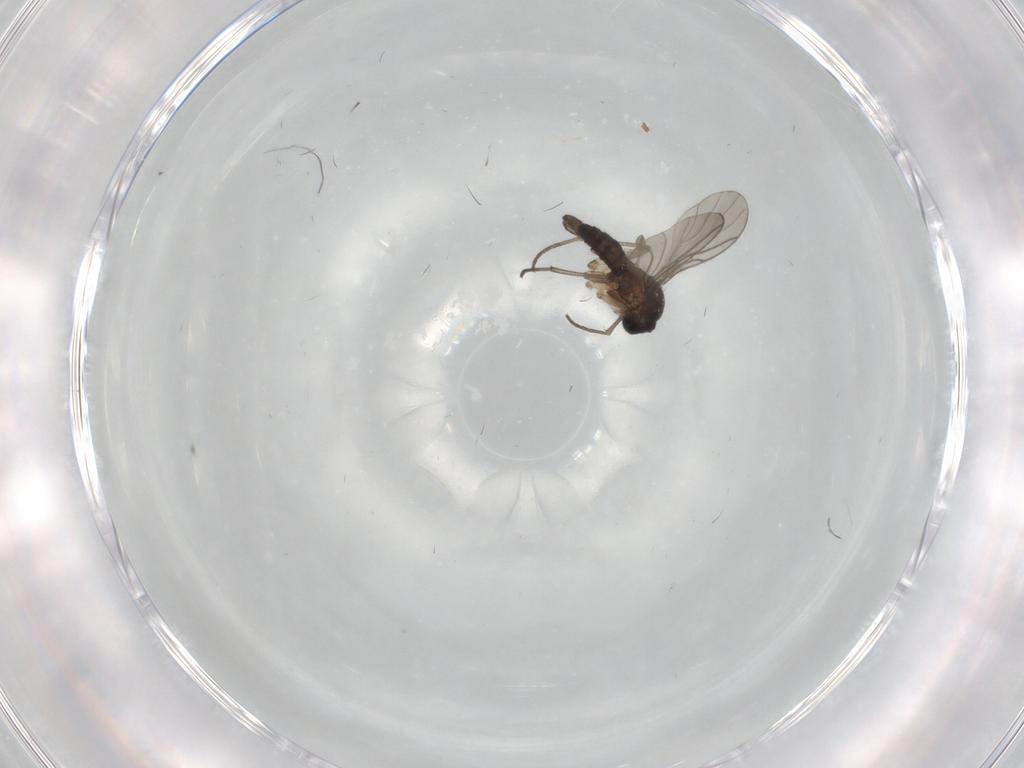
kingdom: Animalia
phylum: Arthropoda
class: Insecta
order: Diptera
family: Sciaridae
